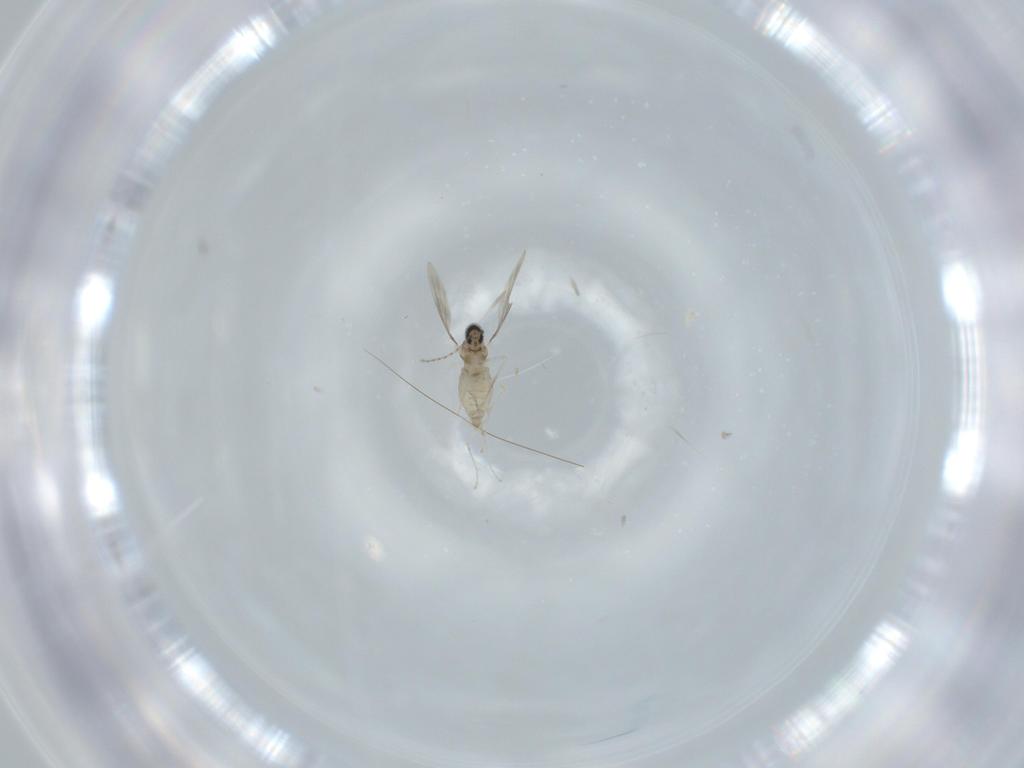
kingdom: Animalia
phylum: Arthropoda
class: Insecta
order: Diptera
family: Cecidomyiidae
